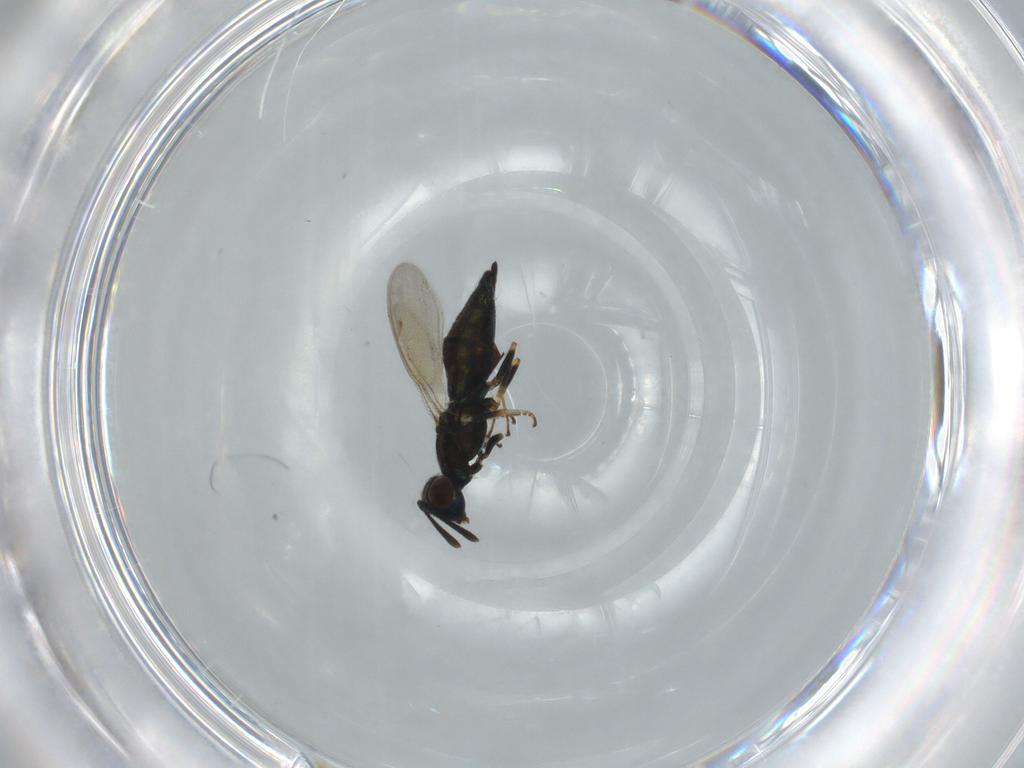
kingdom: Animalia
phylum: Arthropoda
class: Insecta
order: Hymenoptera
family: Eupelmidae
